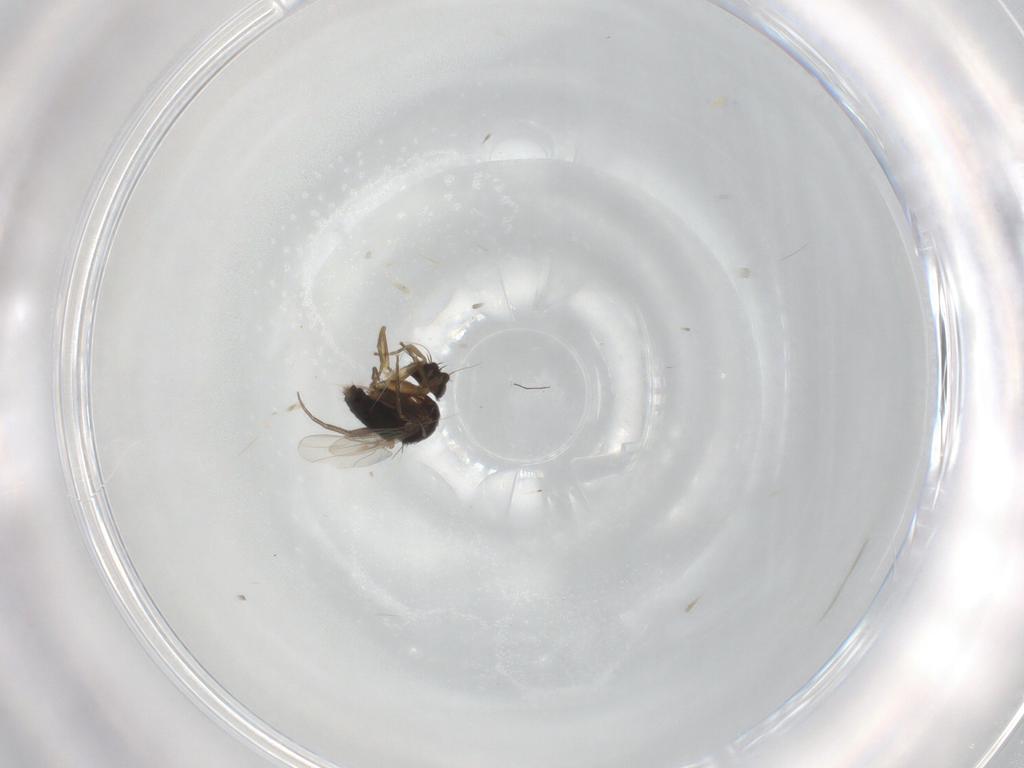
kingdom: Animalia
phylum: Arthropoda
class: Insecta
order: Diptera
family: Phoridae
